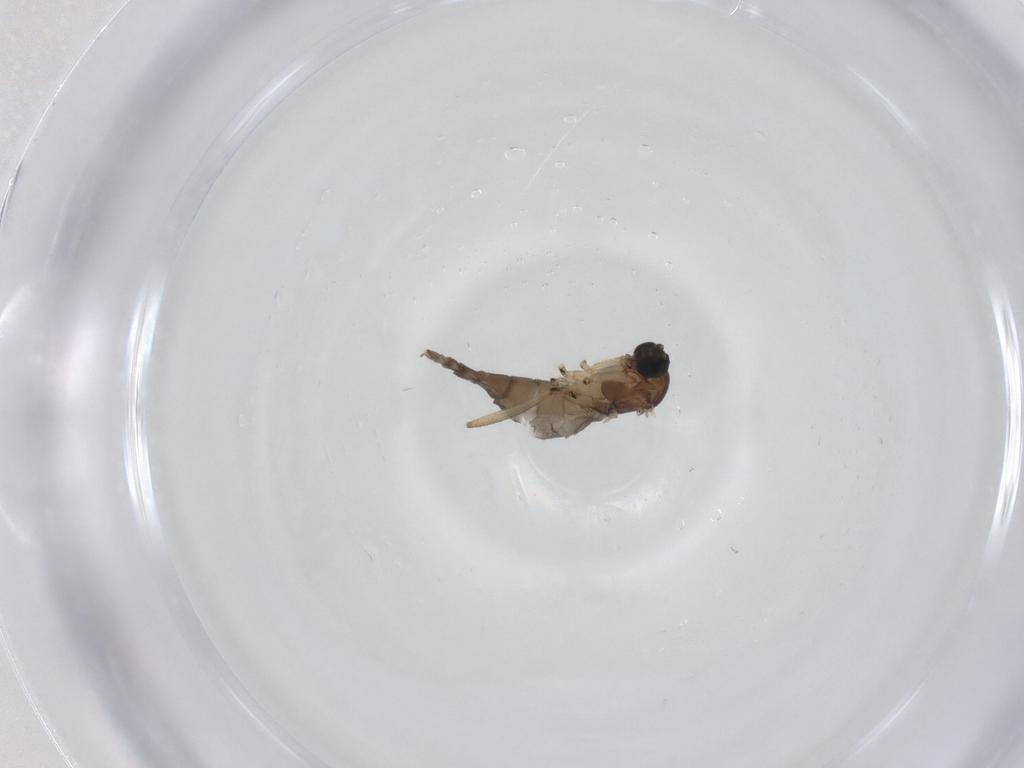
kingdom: Animalia
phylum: Arthropoda
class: Insecta
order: Diptera
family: Sciaridae
